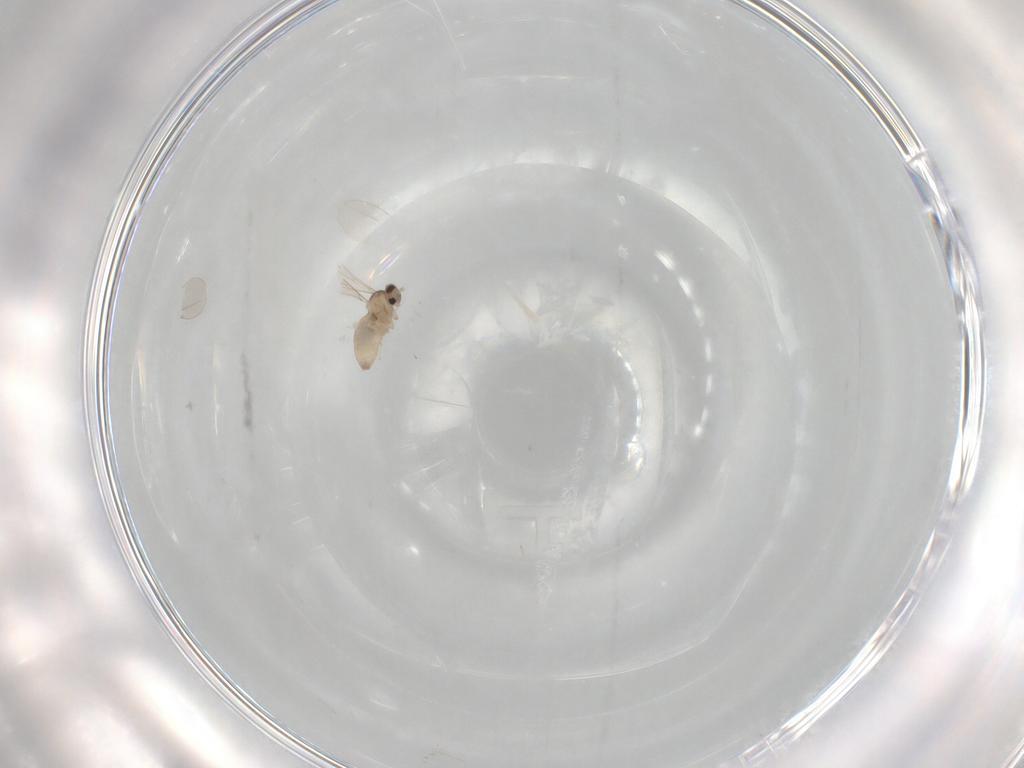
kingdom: Animalia
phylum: Arthropoda
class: Insecta
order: Diptera
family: Cecidomyiidae
